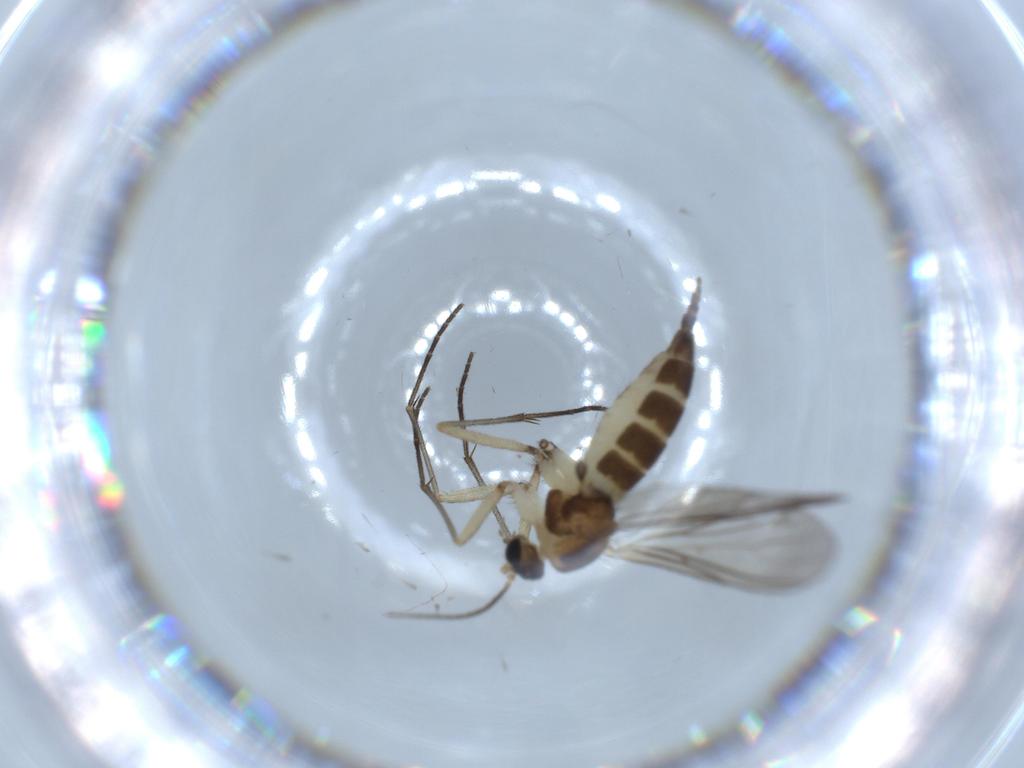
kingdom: Animalia
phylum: Arthropoda
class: Insecta
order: Diptera
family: Sciaridae
